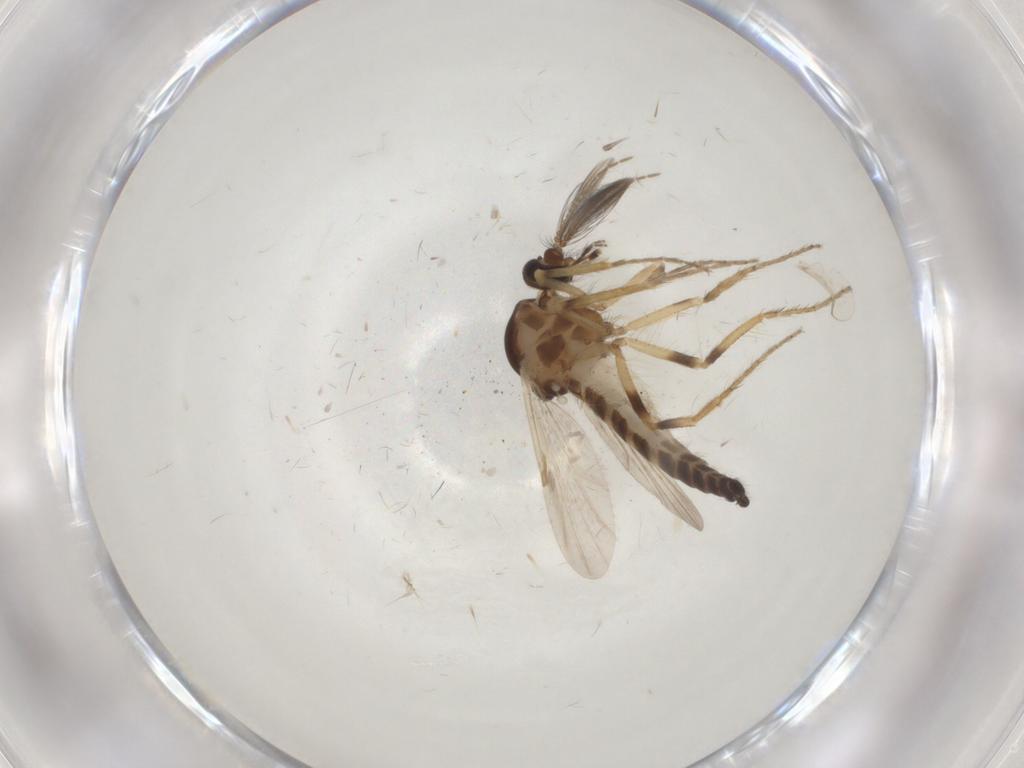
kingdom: Animalia
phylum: Arthropoda
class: Insecta
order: Diptera
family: Ceratopogonidae
